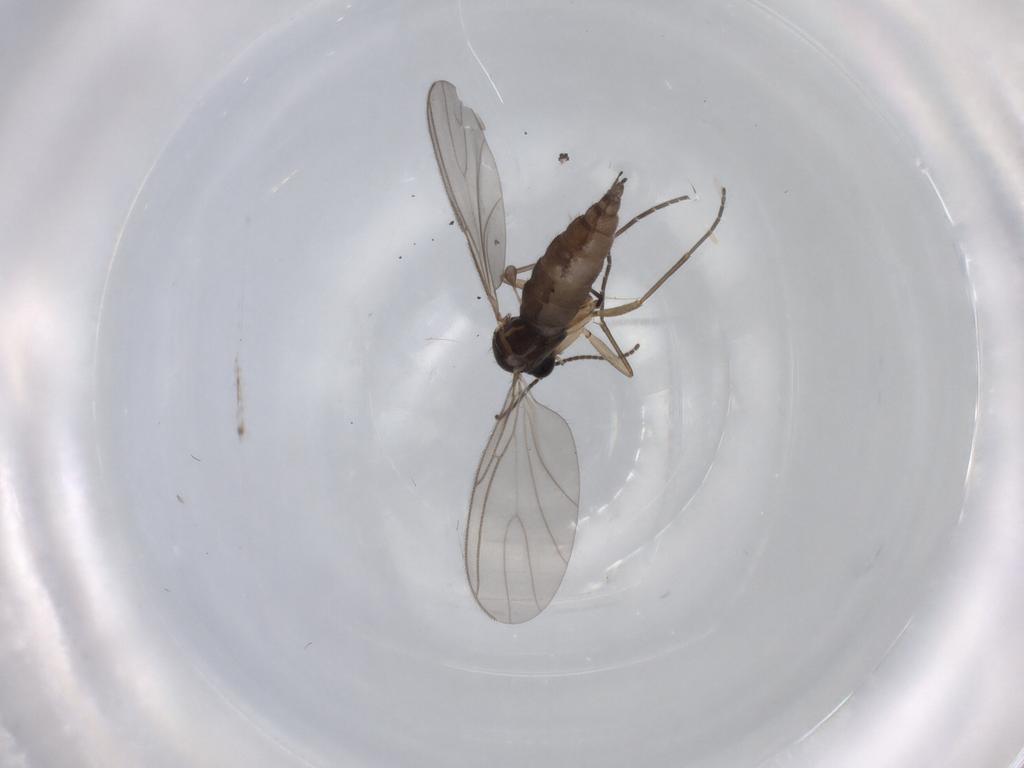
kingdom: Animalia
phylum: Arthropoda
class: Insecta
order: Diptera
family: Sciaridae
